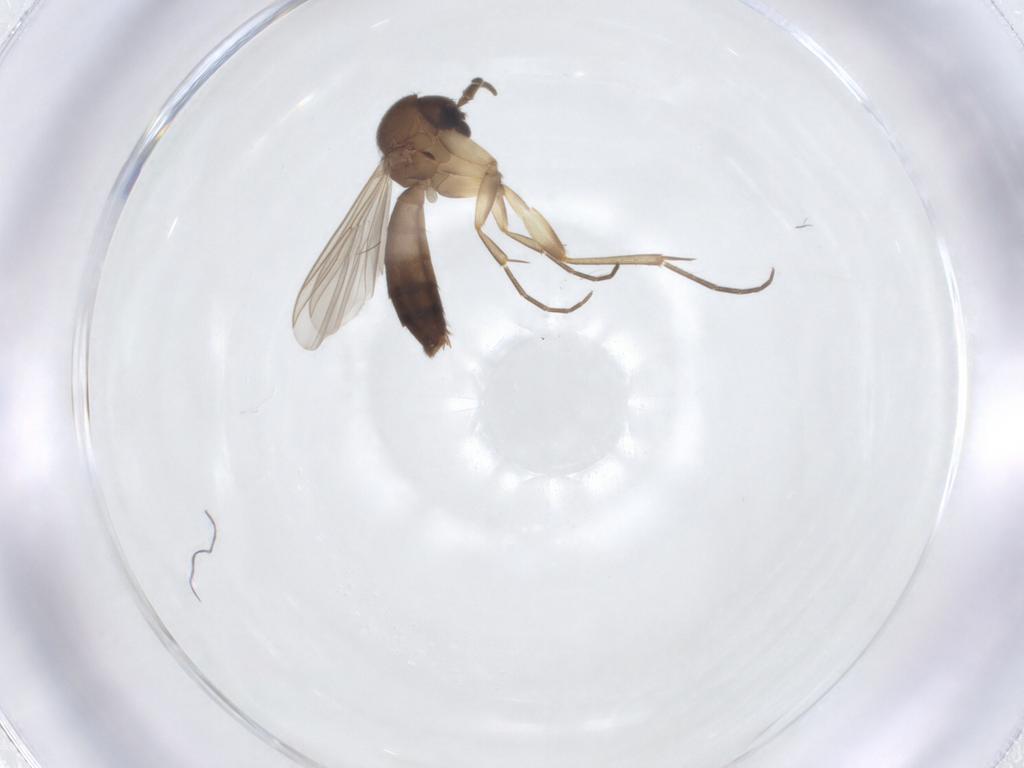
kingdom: Animalia
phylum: Arthropoda
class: Insecta
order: Diptera
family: Mycetophilidae
